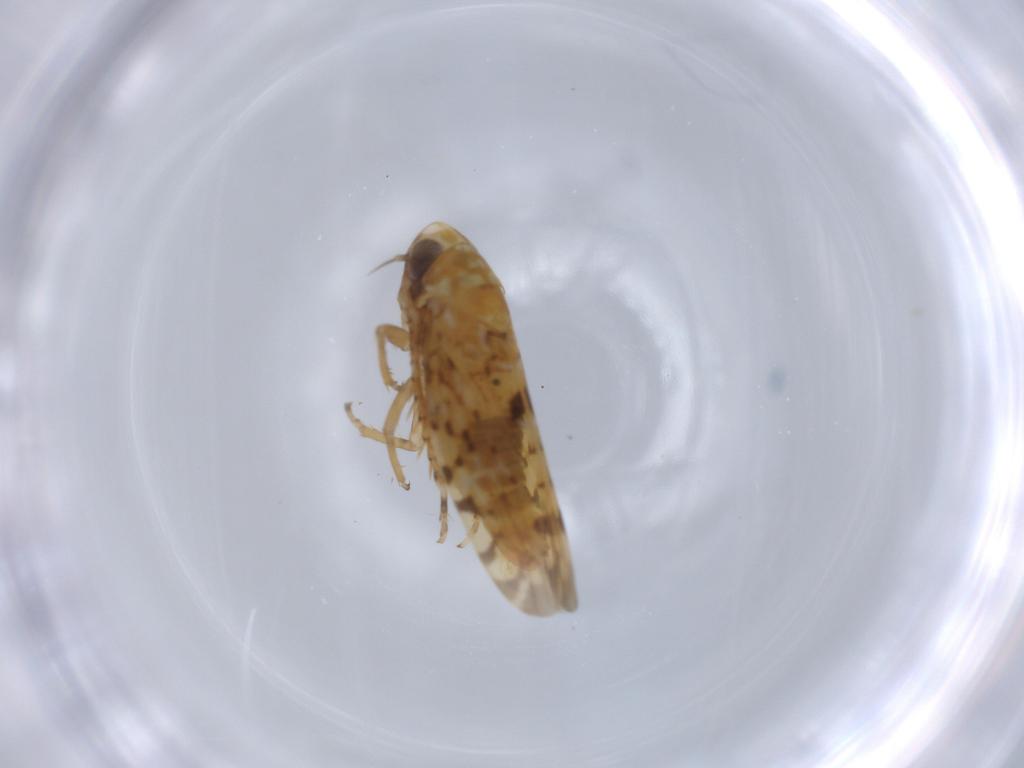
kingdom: Animalia
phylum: Arthropoda
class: Insecta
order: Hemiptera
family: Cicadellidae
